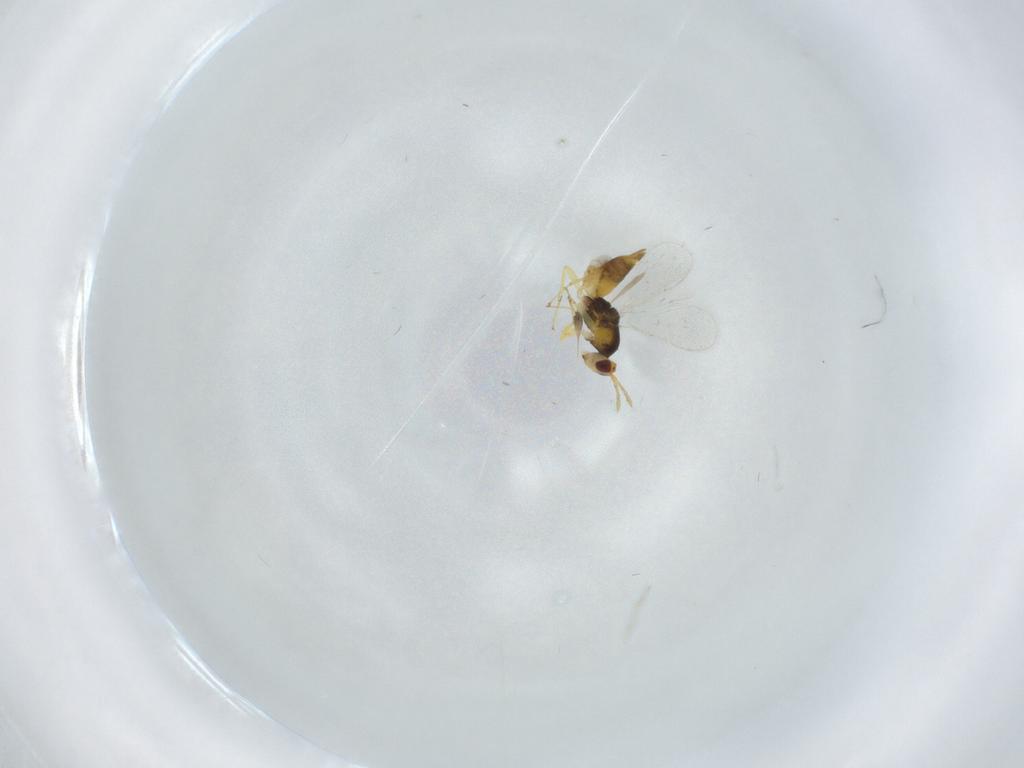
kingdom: Animalia
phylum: Arthropoda
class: Insecta
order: Hymenoptera
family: Eulophidae
